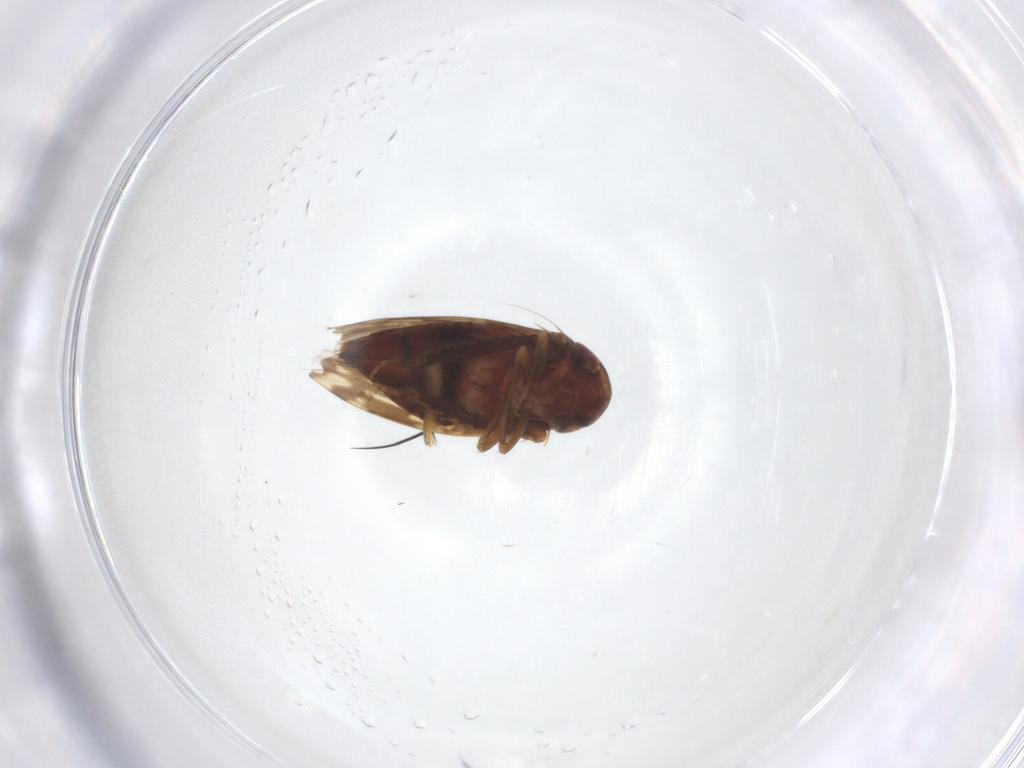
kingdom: Animalia
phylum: Arthropoda
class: Insecta
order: Hemiptera
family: Cicadellidae
